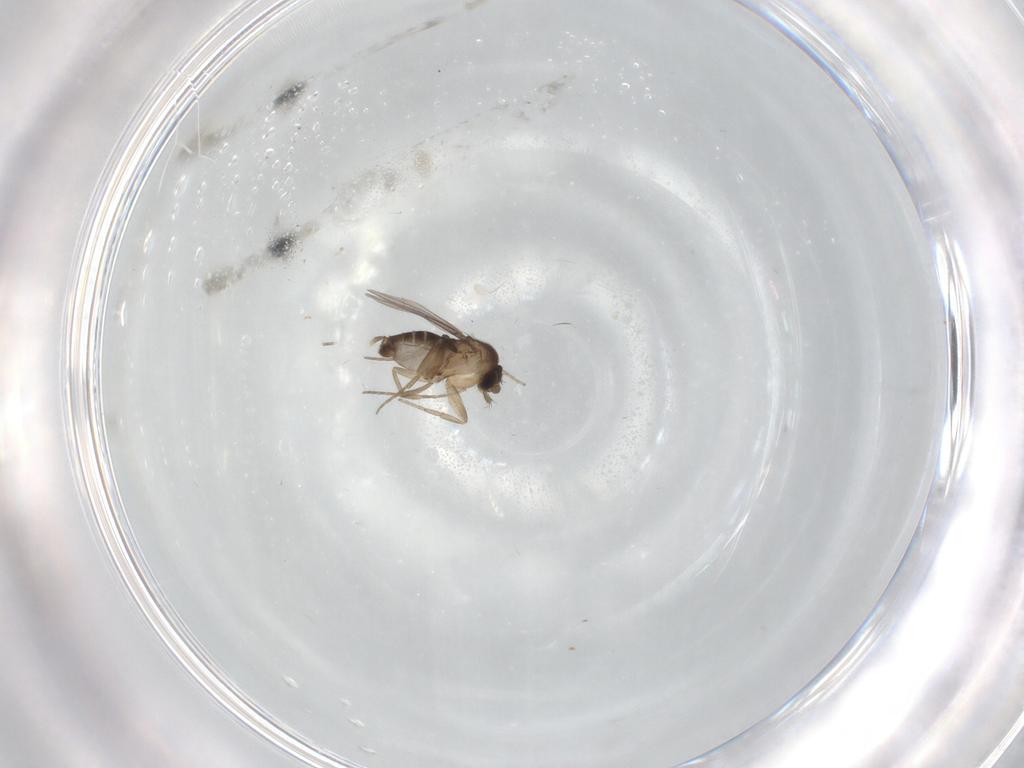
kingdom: Animalia
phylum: Arthropoda
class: Insecta
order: Diptera
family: Phoridae
